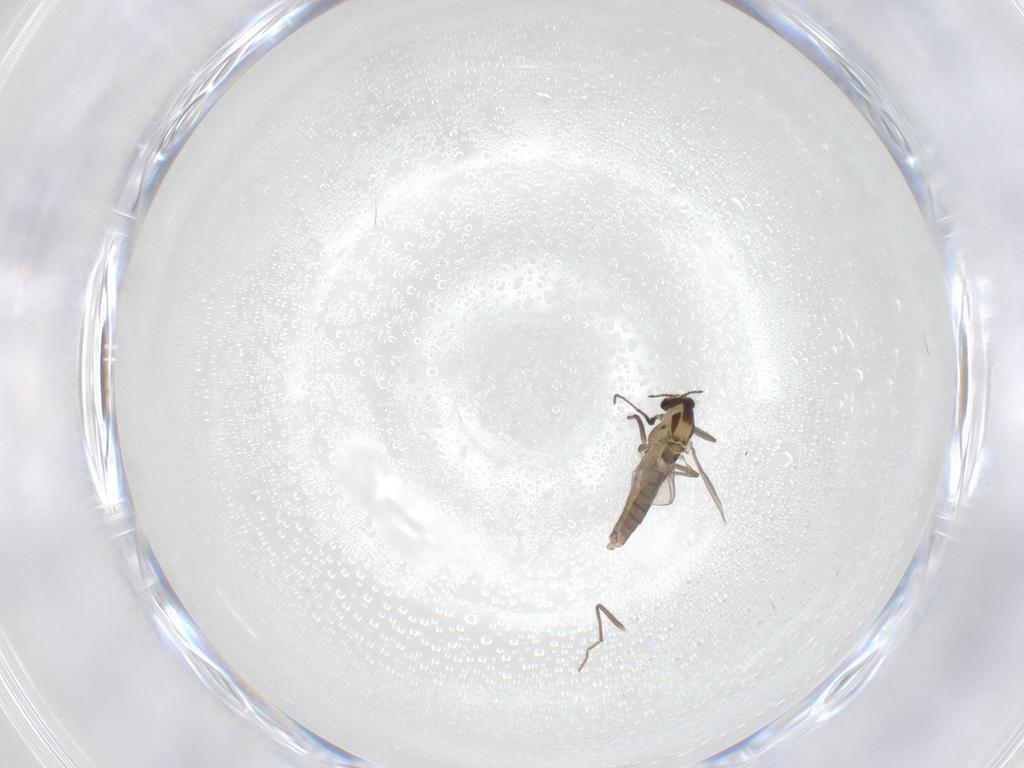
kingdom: Animalia
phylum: Arthropoda
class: Insecta
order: Diptera
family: Chironomidae
